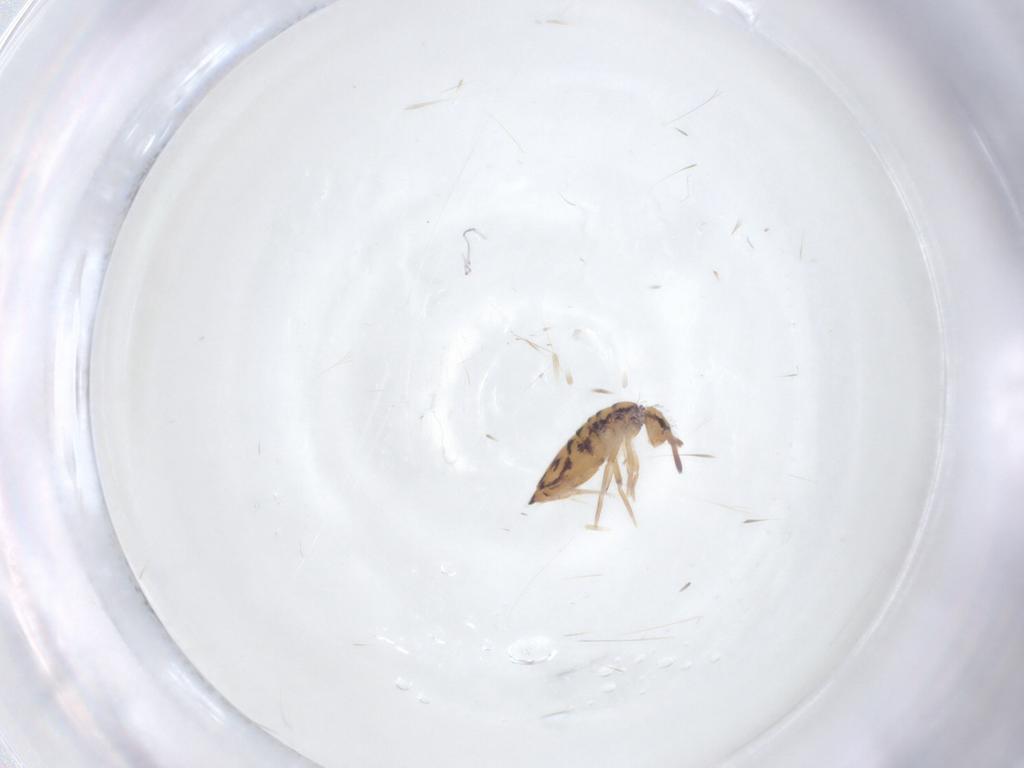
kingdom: Animalia
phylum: Arthropoda
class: Collembola
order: Entomobryomorpha
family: Entomobryidae
